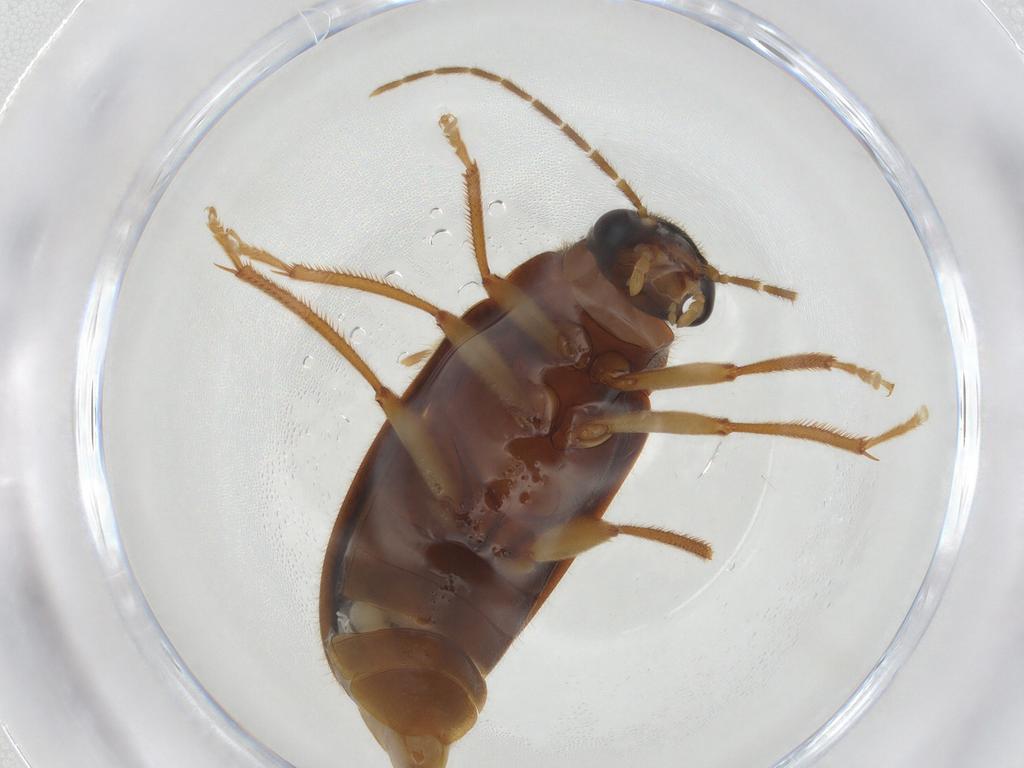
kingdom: Animalia
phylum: Arthropoda
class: Insecta
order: Coleoptera
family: Ptilodactylidae
